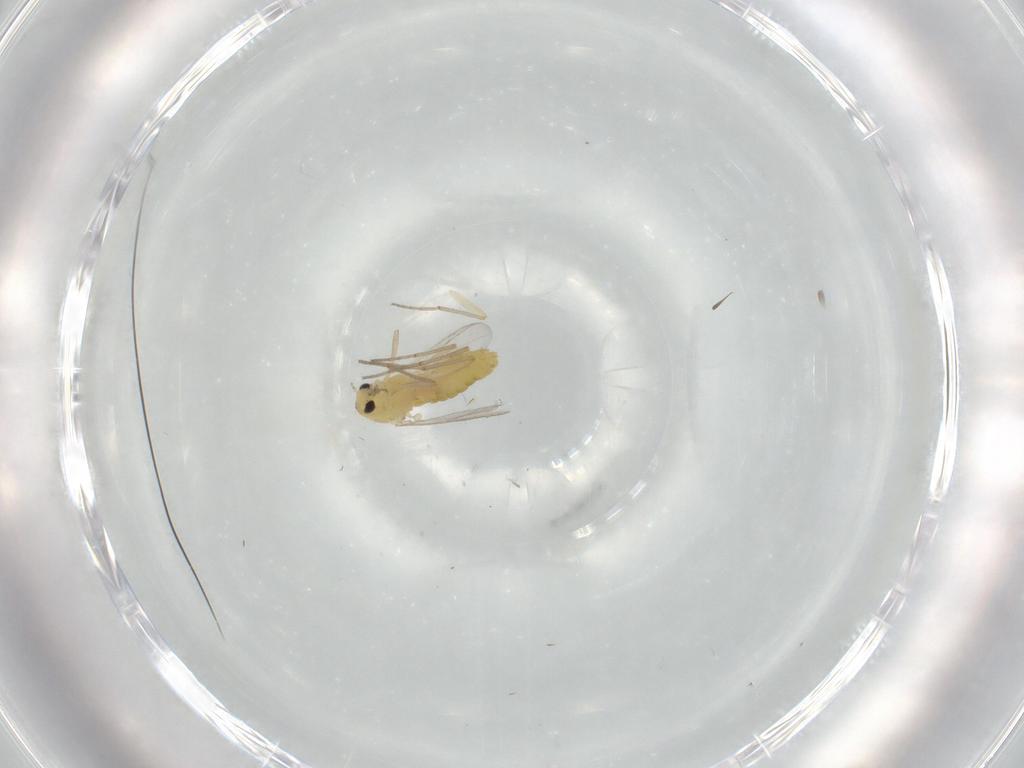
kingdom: Animalia
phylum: Arthropoda
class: Insecta
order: Diptera
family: Chironomidae
